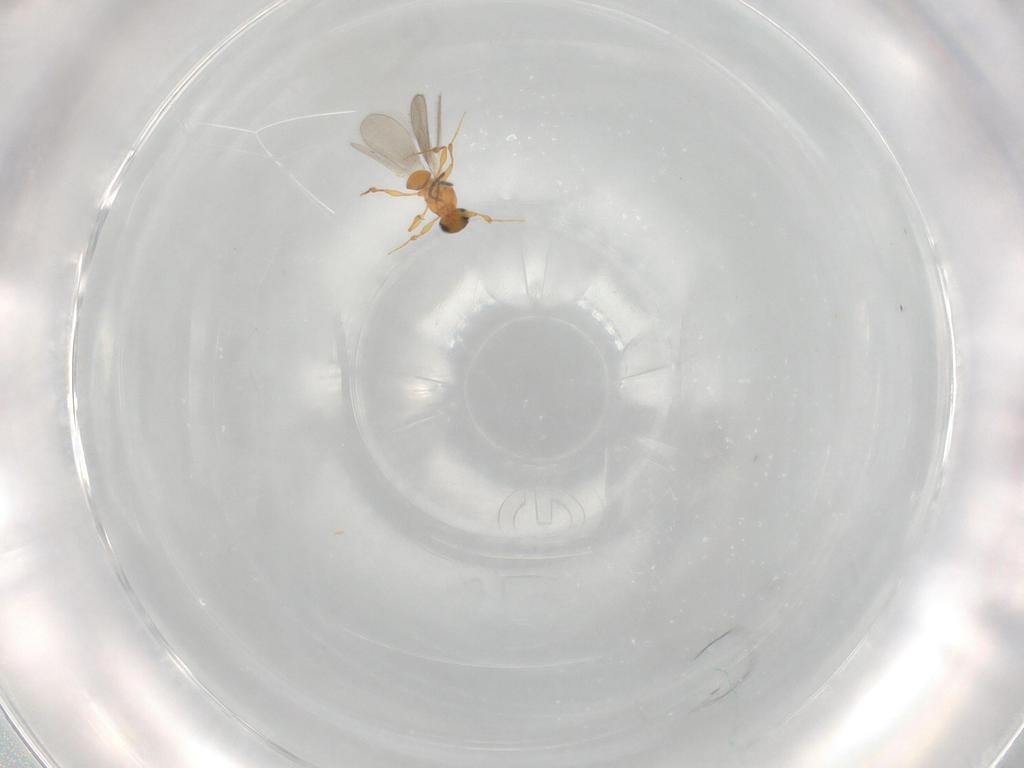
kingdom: Animalia
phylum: Arthropoda
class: Insecta
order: Hymenoptera
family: Platygastridae
